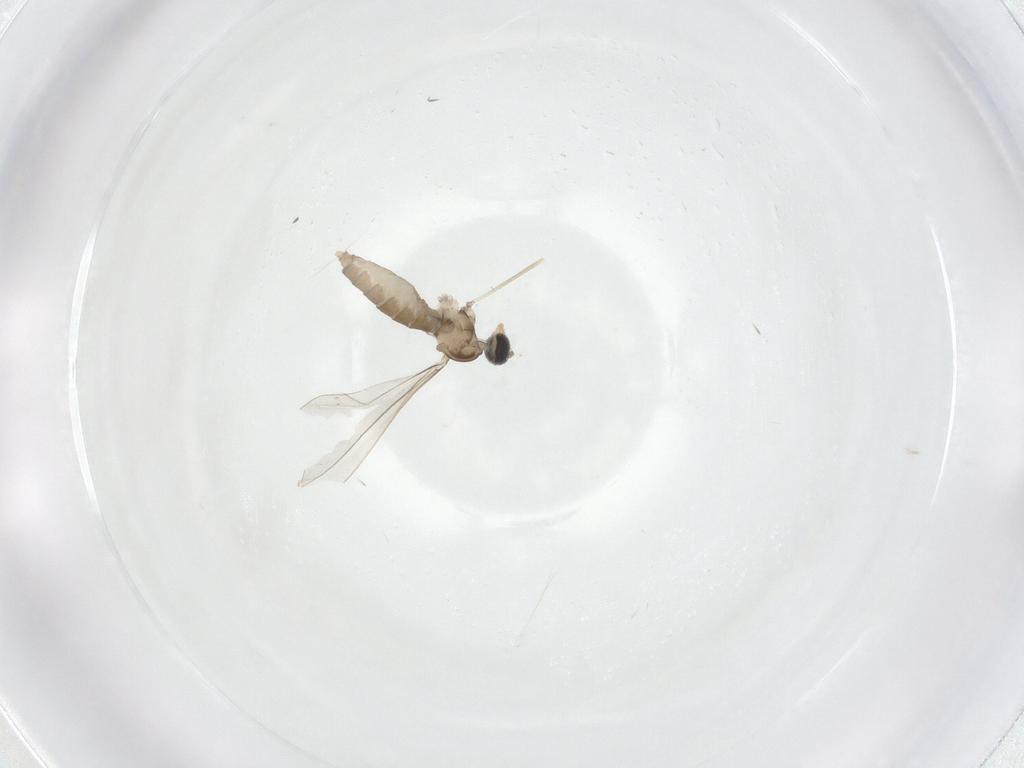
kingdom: Animalia
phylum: Arthropoda
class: Insecta
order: Diptera
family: Cecidomyiidae
